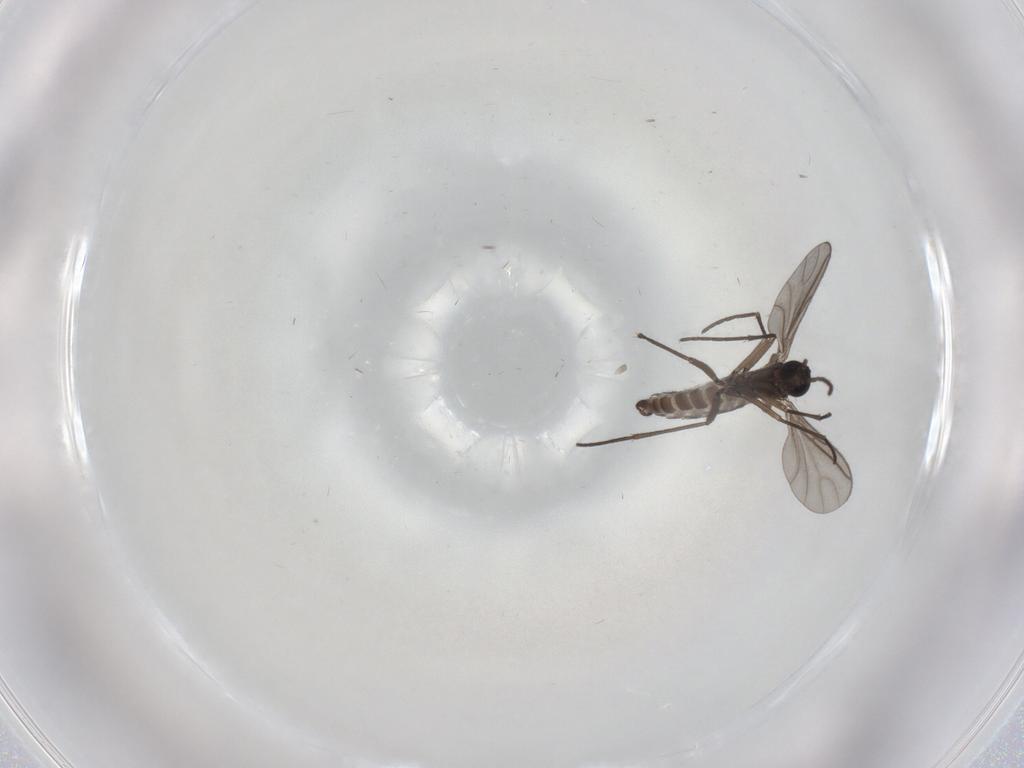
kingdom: Animalia
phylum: Arthropoda
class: Insecta
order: Diptera
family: Sciaridae
